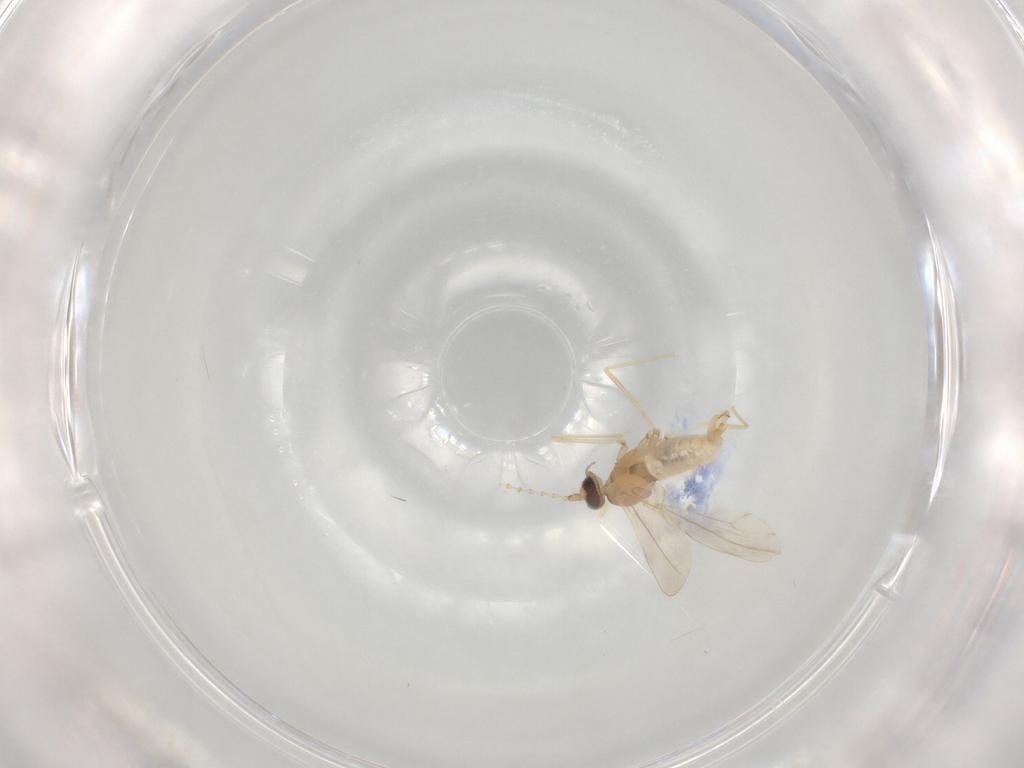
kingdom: Animalia
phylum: Arthropoda
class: Insecta
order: Diptera
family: Cecidomyiidae
